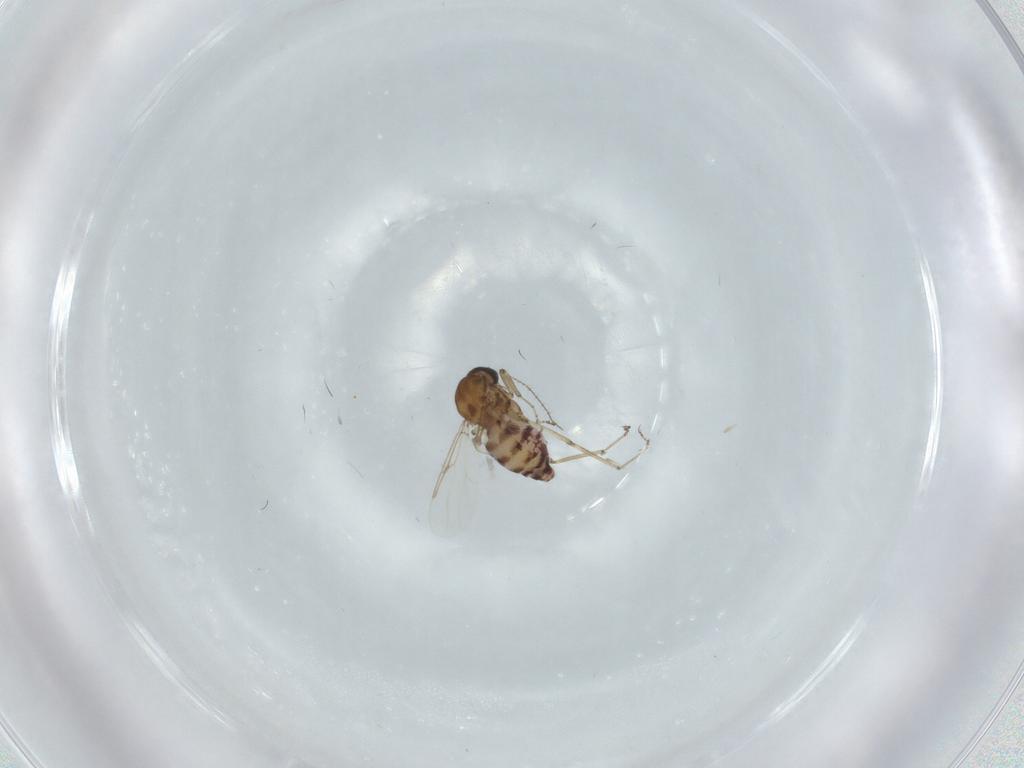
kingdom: Animalia
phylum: Arthropoda
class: Insecta
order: Diptera
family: Ceratopogonidae
